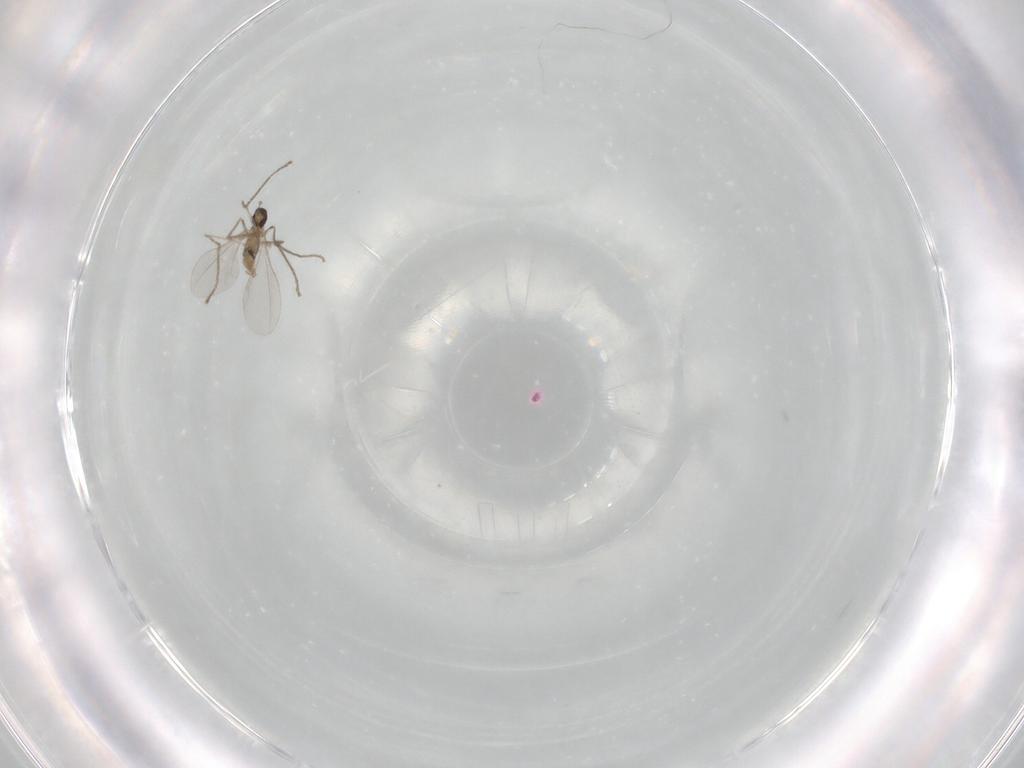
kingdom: Animalia
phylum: Arthropoda
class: Insecta
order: Diptera
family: Cecidomyiidae
